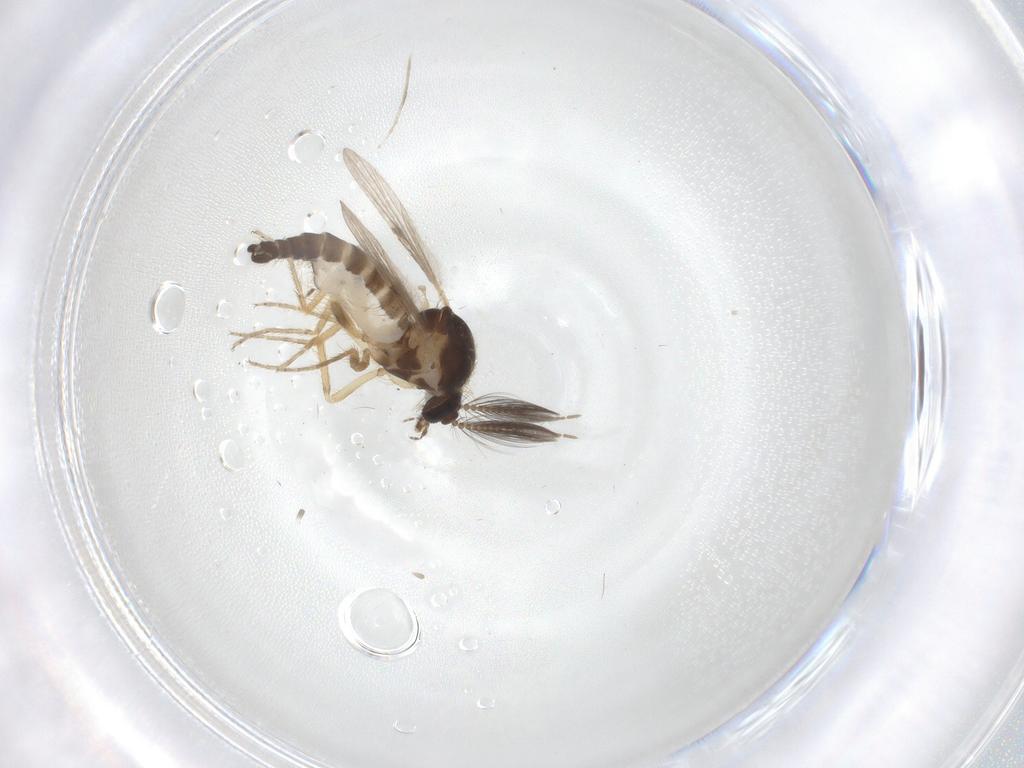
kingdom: Animalia
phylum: Arthropoda
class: Insecta
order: Diptera
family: Ceratopogonidae
